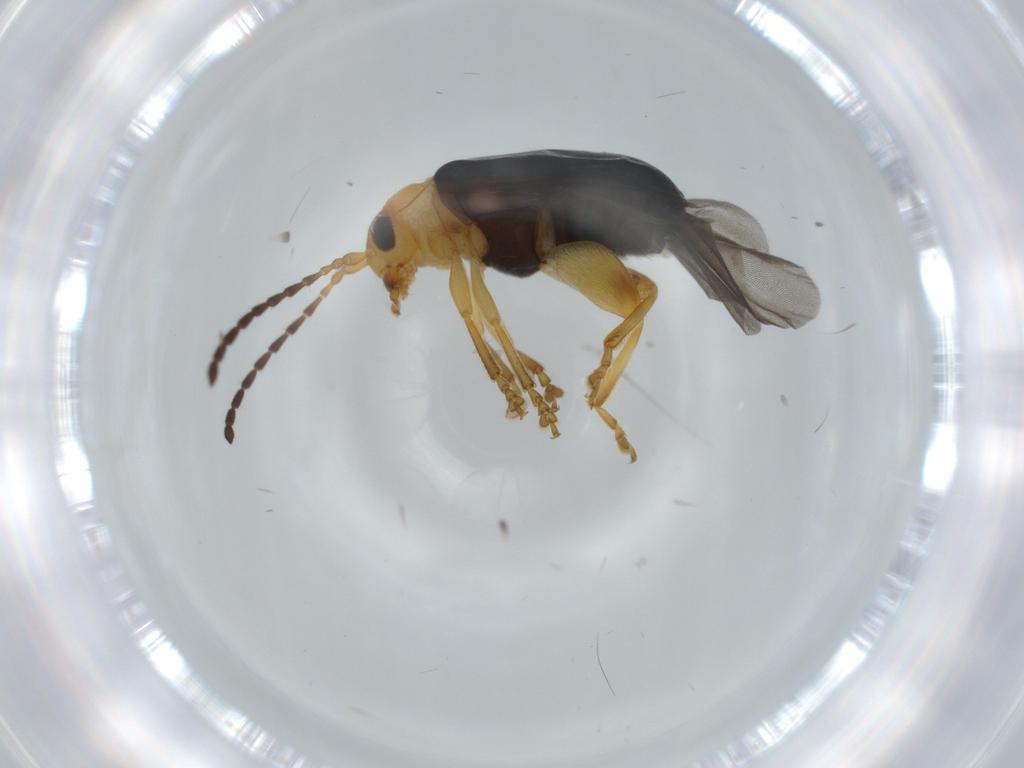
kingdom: Animalia
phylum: Arthropoda
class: Insecta
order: Coleoptera
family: Chrysomelidae
